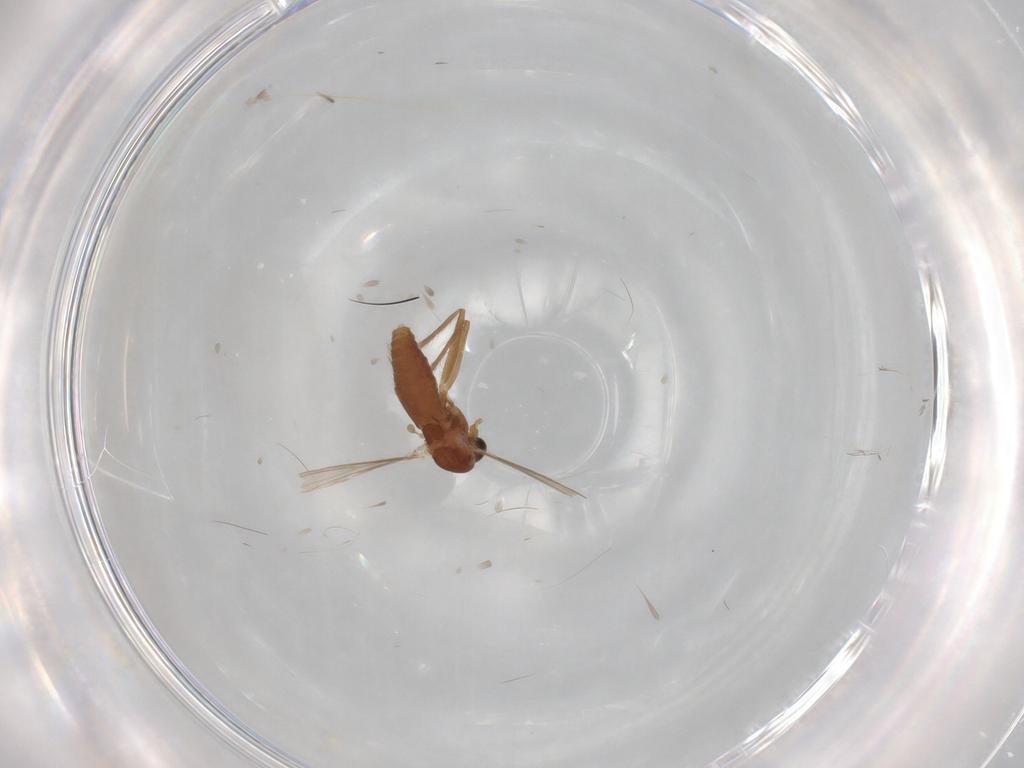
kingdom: Animalia
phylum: Arthropoda
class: Insecta
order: Diptera
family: Chironomidae
